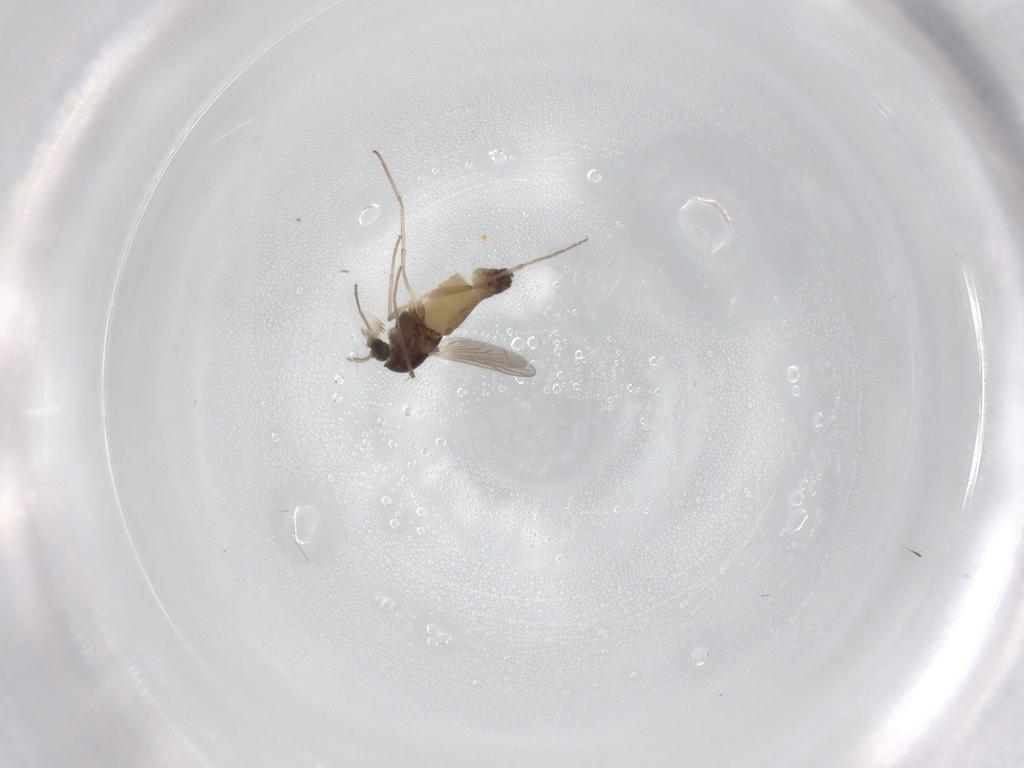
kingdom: Animalia
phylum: Arthropoda
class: Insecta
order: Diptera
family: Chironomidae
